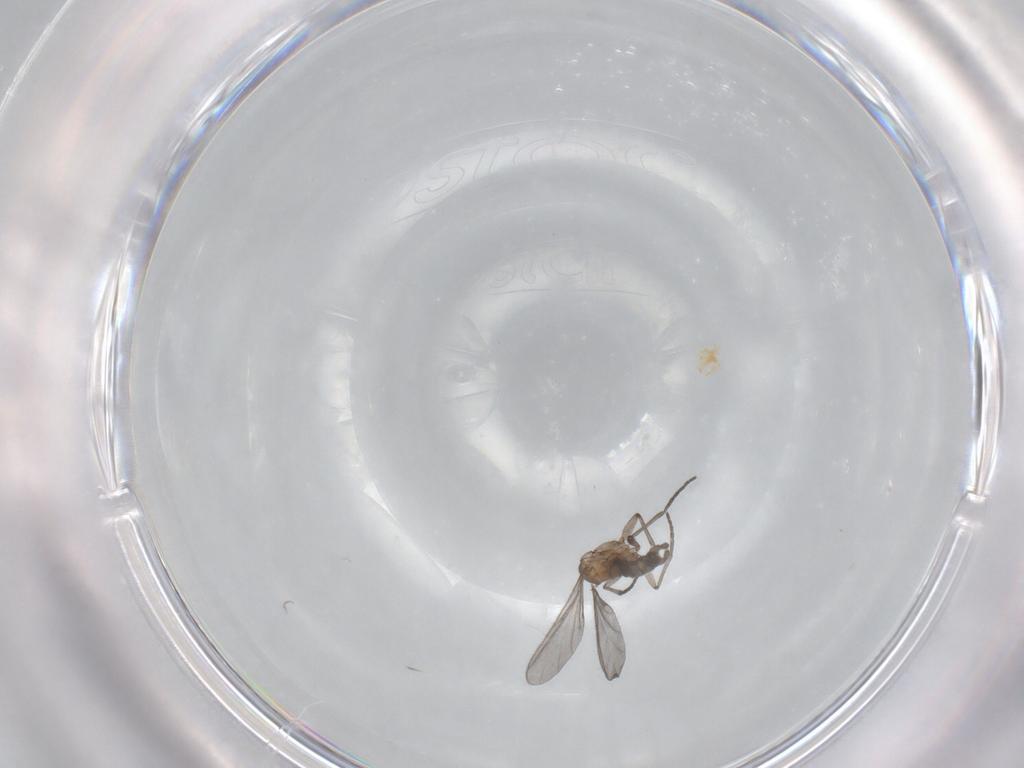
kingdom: Animalia
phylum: Arthropoda
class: Insecta
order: Diptera
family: Sciaridae
